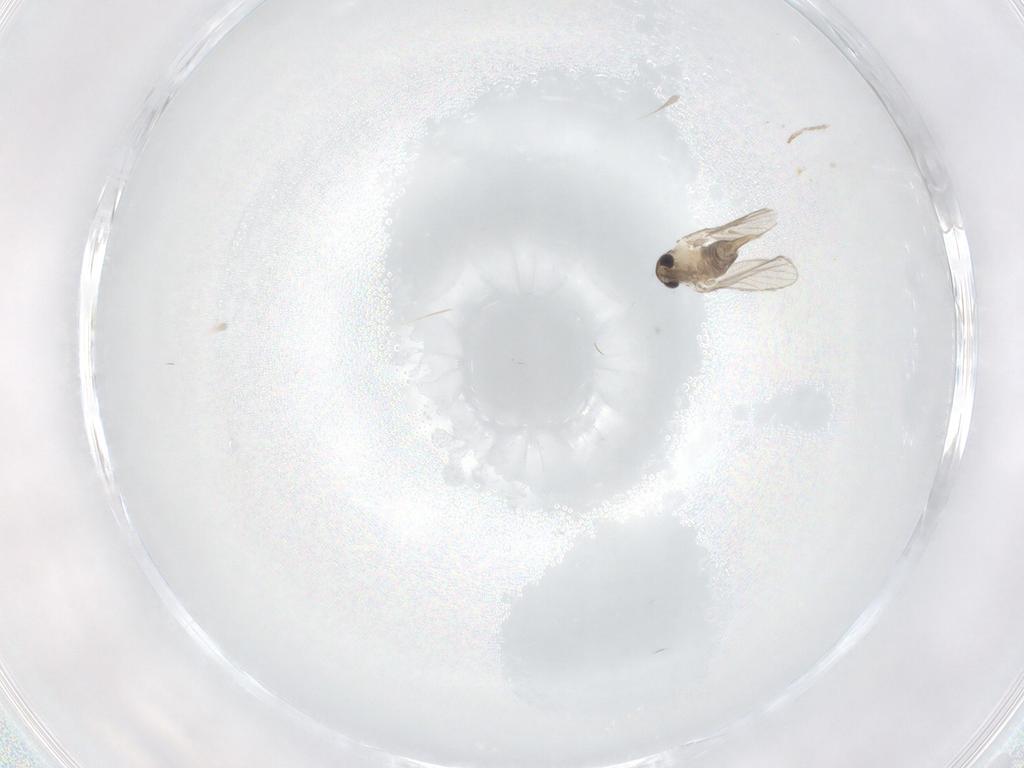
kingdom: Animalia
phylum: Arthropoda
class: Insecta
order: Diptera
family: Cecidomyiidae
